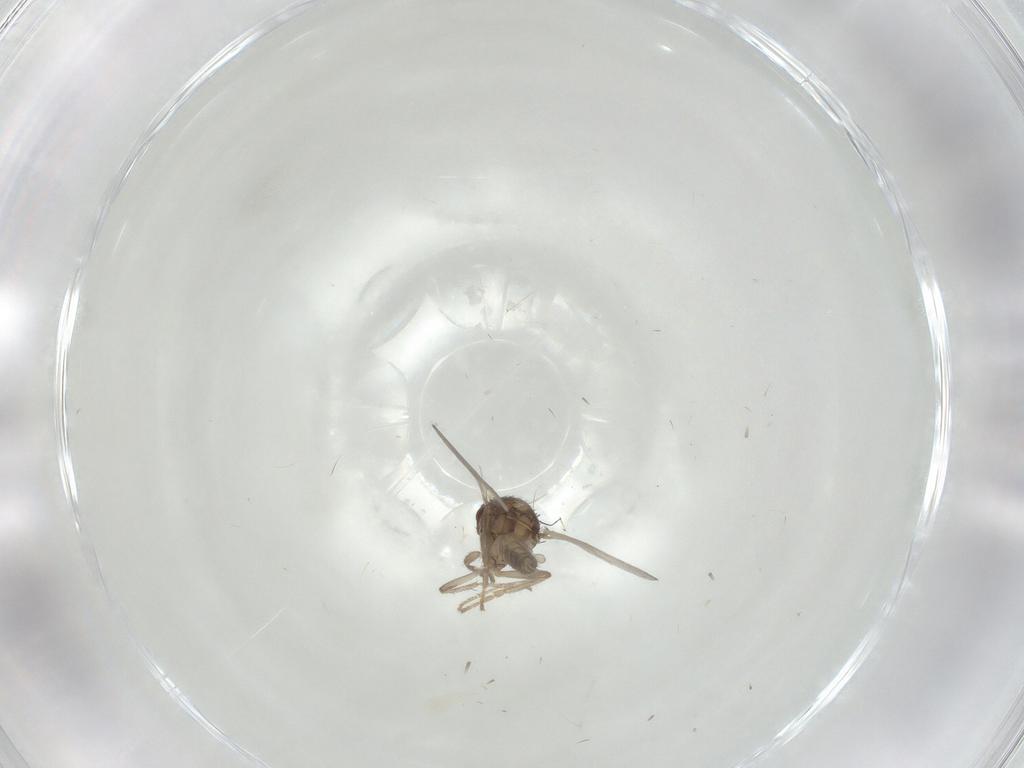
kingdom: Animalia
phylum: Arthropoda
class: Insecta
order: Diptera
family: Sphaeroceridae
